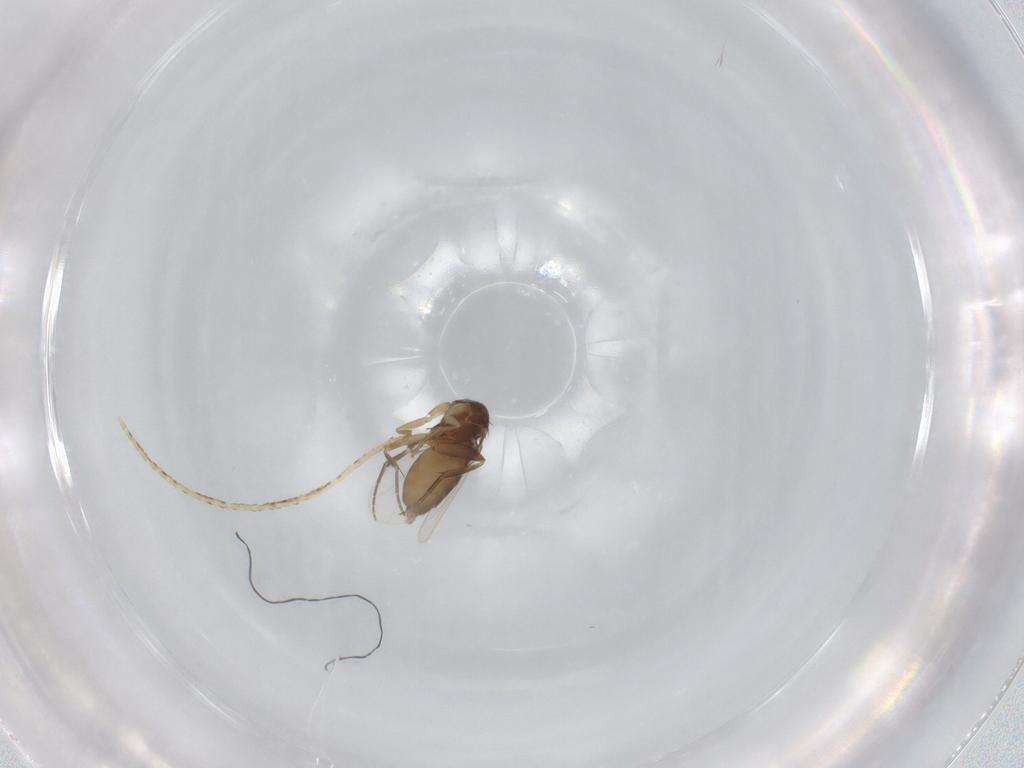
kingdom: Animalia
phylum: Arthropoda
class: Insecta
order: Diptera
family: Phoridae
